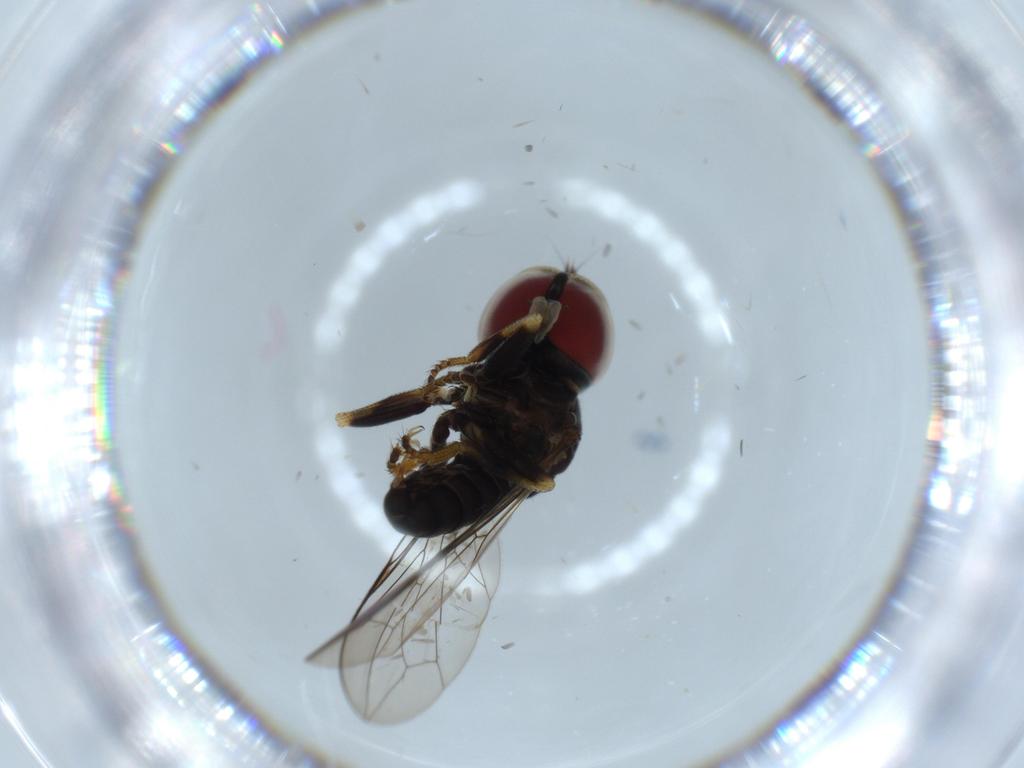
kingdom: Animalia
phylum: Arthropoda
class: Insecta
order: Diptera
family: Pipunculidae
